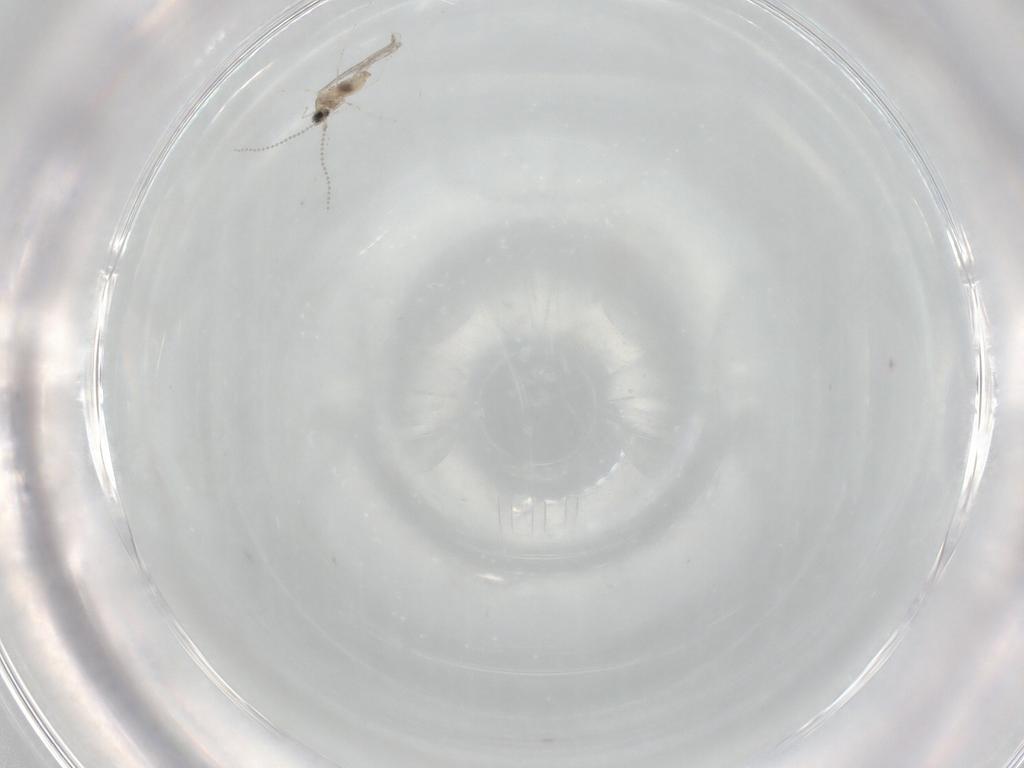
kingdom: Animalia
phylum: Arthropoda
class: Insecta
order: Diptera
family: Cecidomyiidae
